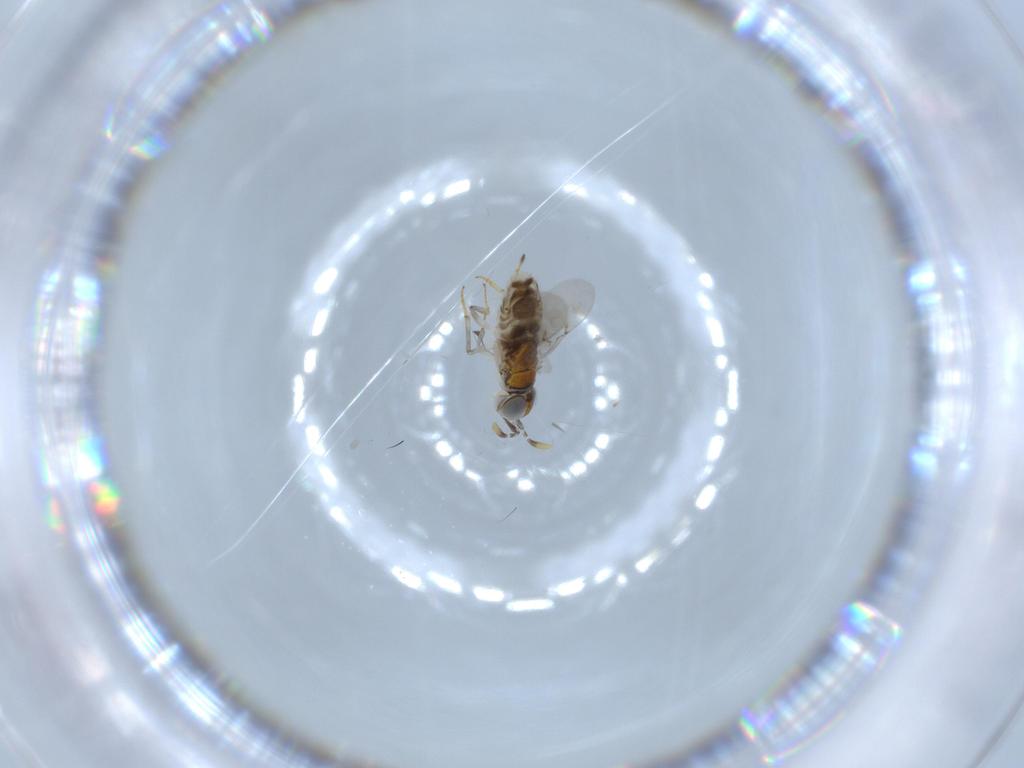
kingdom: Animalia
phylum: Arthropoda
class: Insecta
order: Hymenoptera
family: Encyrtidae
